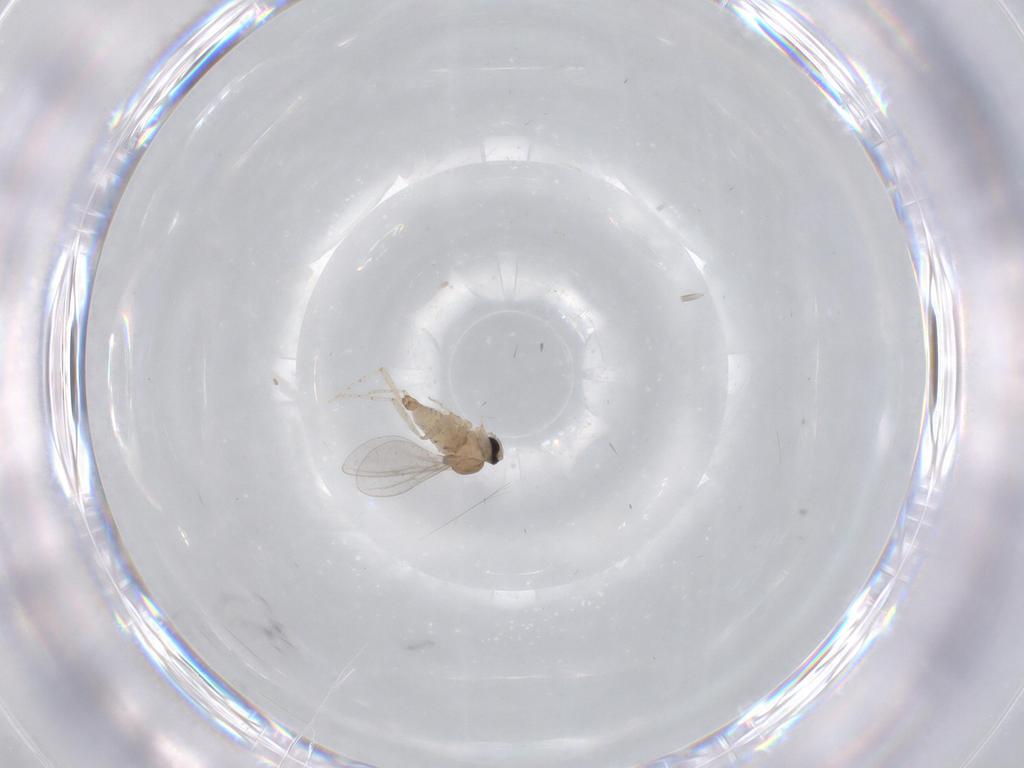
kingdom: Animalia
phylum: Arthropoda
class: Insecta
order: Diptera
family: Cecidomyiidae
